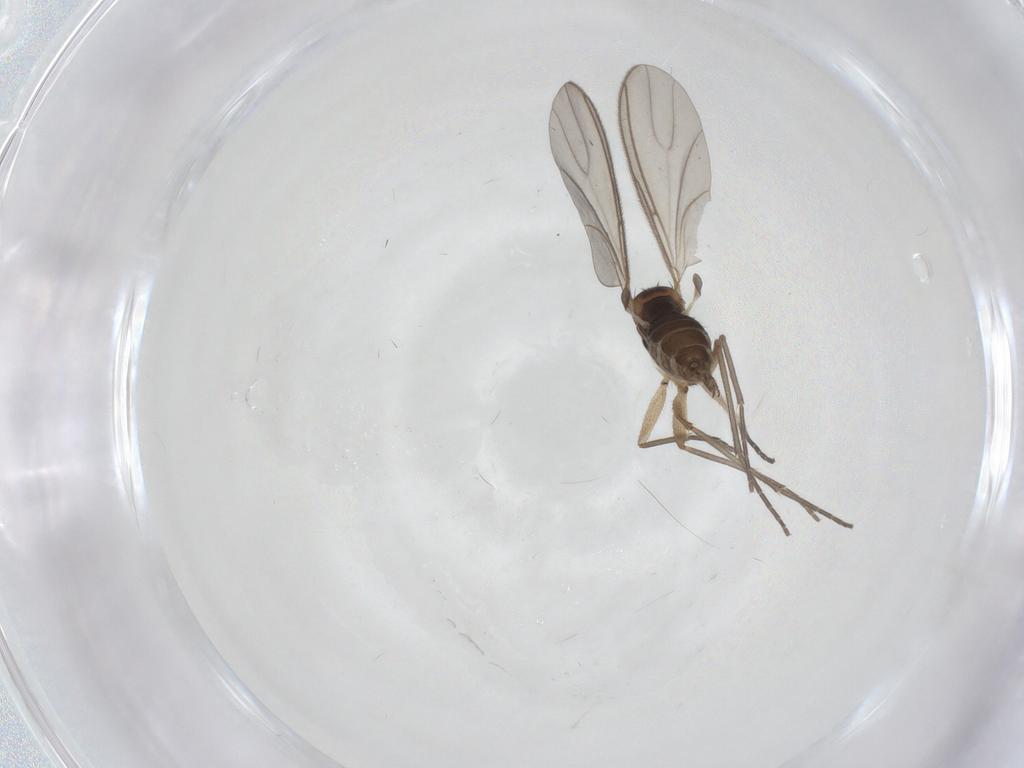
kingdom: Animalia
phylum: Arthropoda
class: Insecta
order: Diptera
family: Sciaridae
